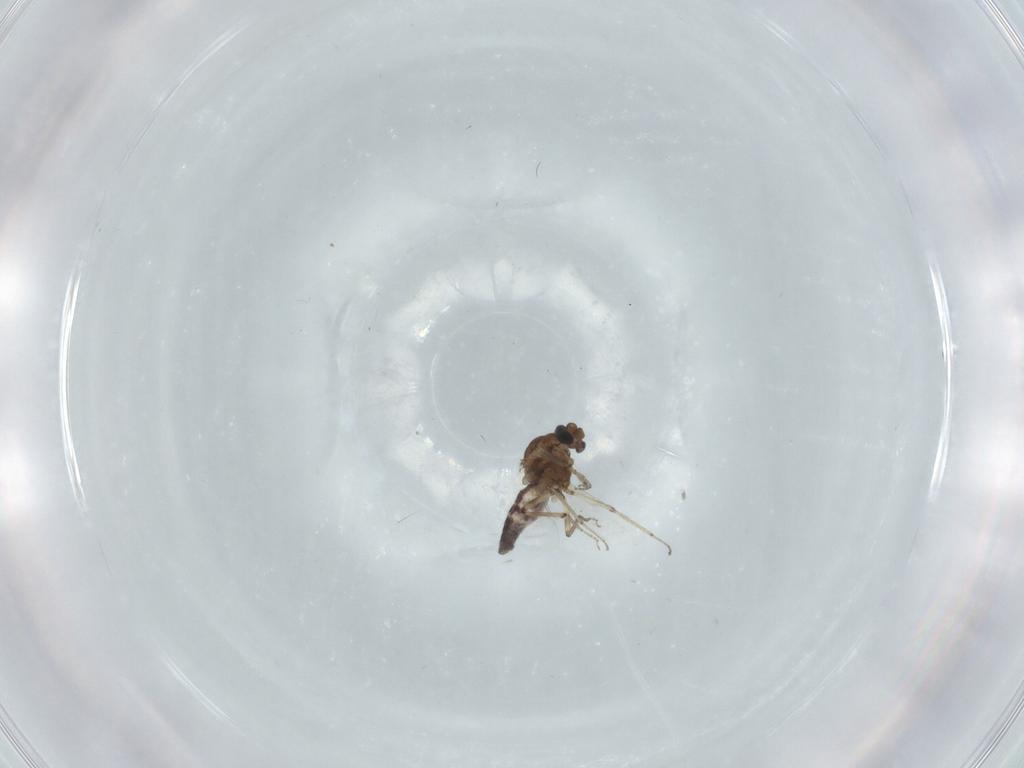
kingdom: Animalia
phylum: Arthropoda
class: Insecta
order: Diptera
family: Ceratopogonidae
